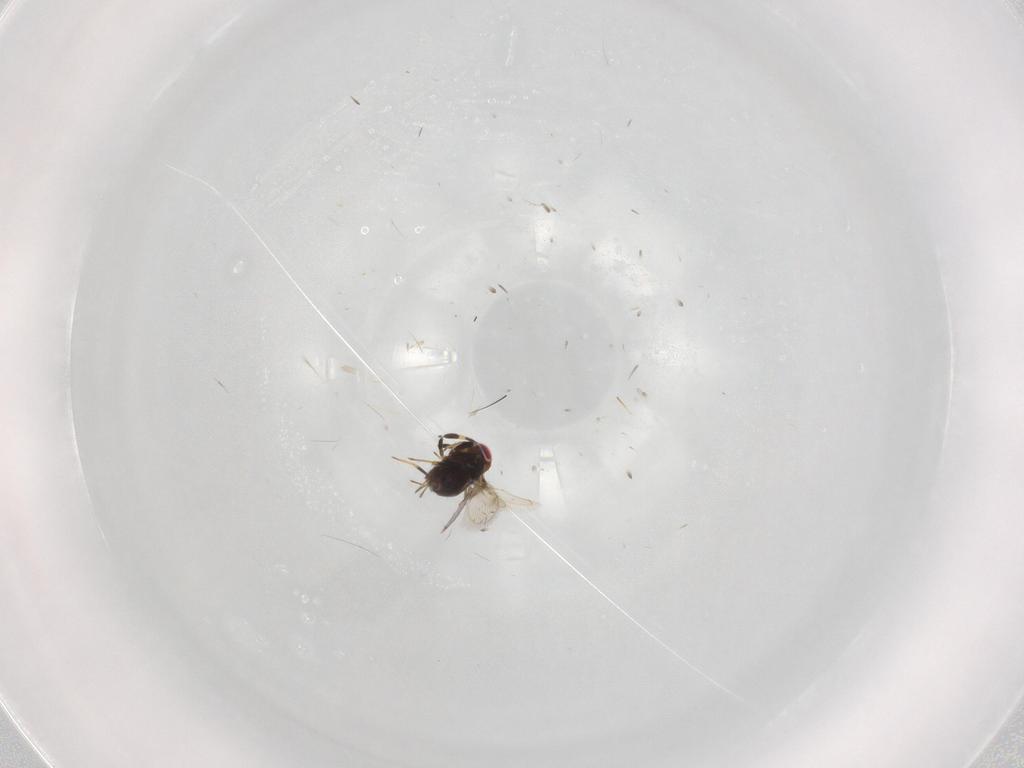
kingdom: Animalia
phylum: Arthropoda
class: Insecta
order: Hymenoptera
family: Azotidae
